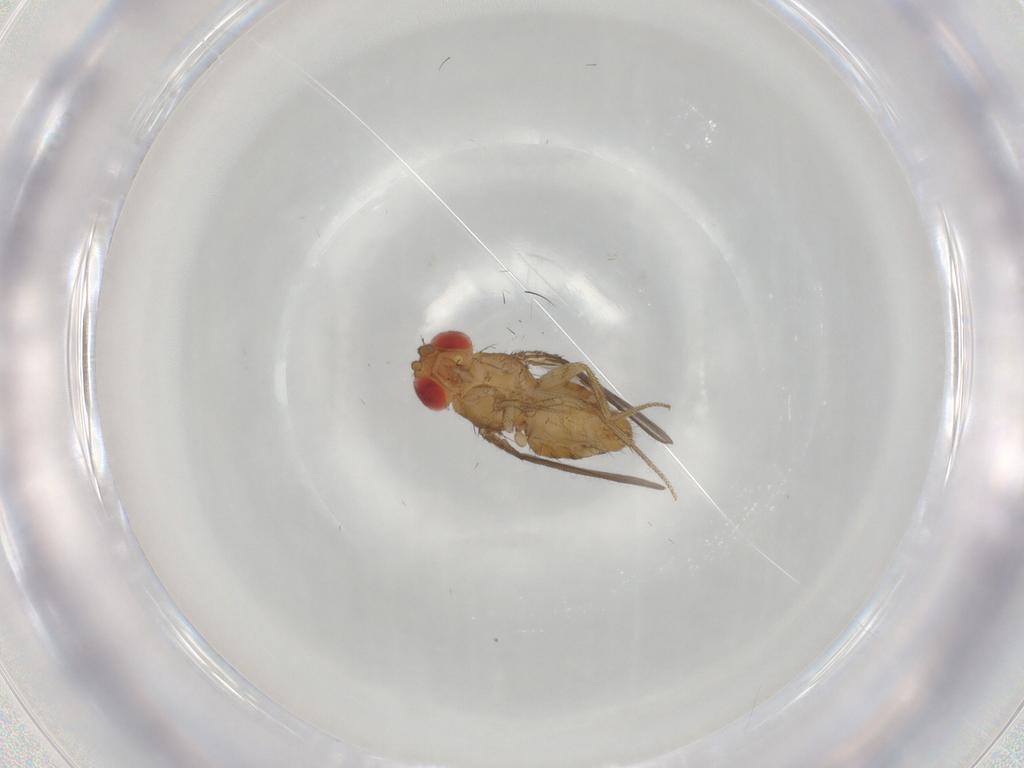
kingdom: Animalia
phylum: Arthropoda
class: Insecta
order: Diptera
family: Drosophilidae
